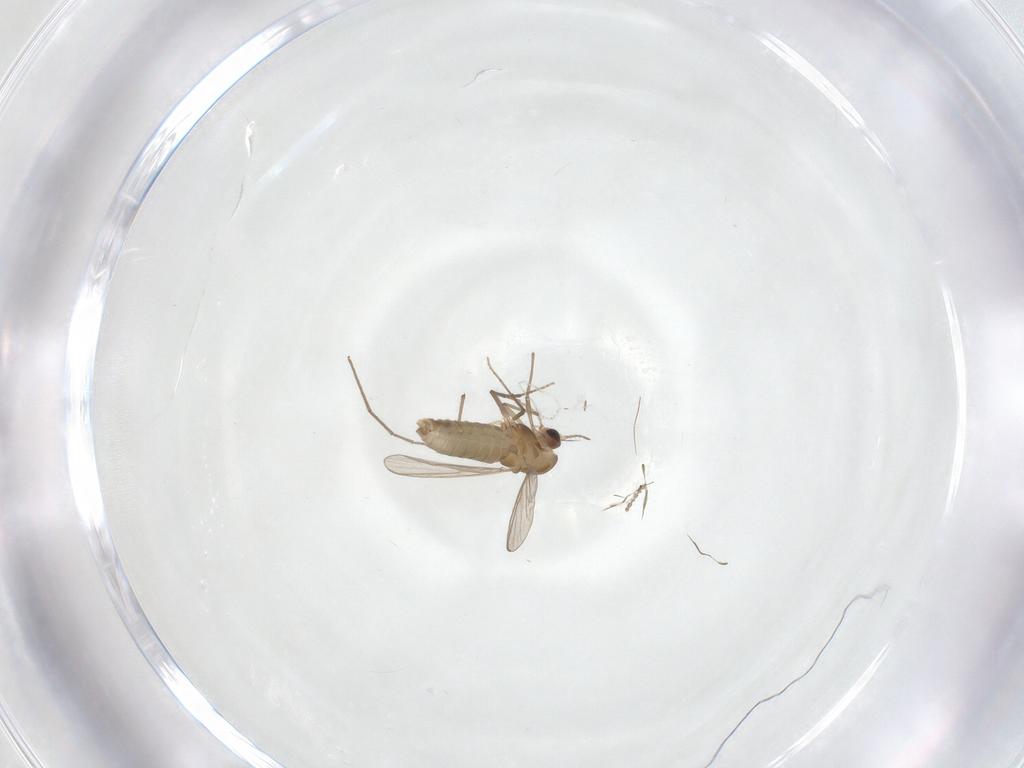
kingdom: Animalia
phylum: Arthropoda
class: Insecta
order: Diptera
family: Cecidomyiidae
